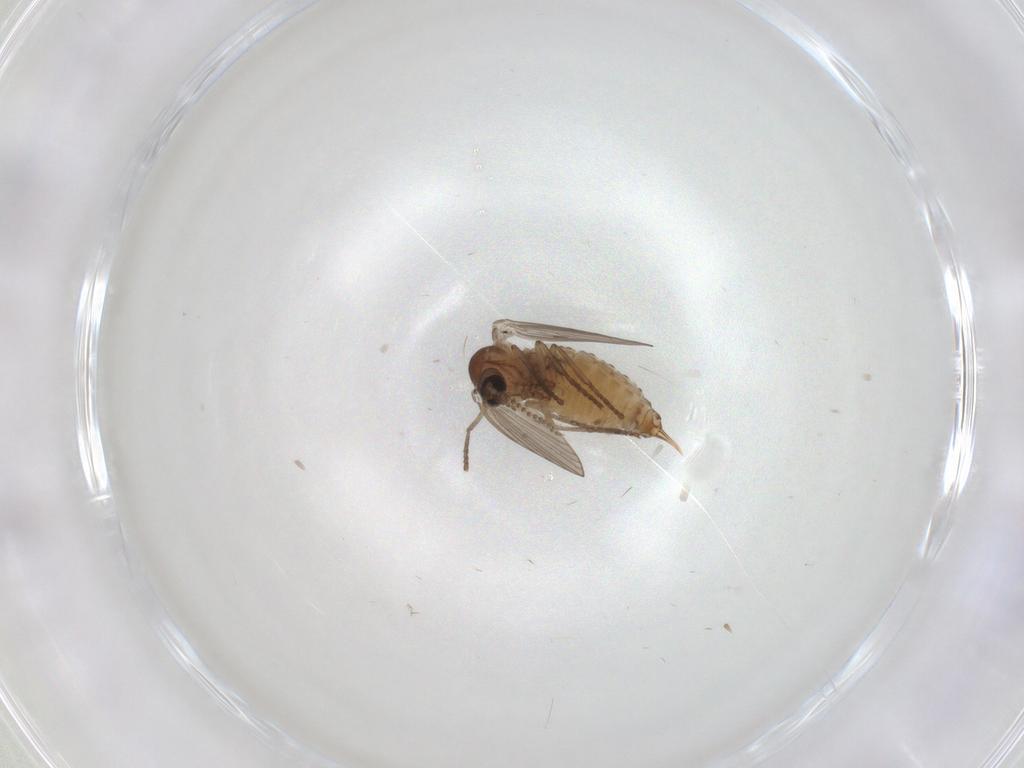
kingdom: Animalia
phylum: Arthropoda
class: Insecta
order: Diptera
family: Chironomidae
